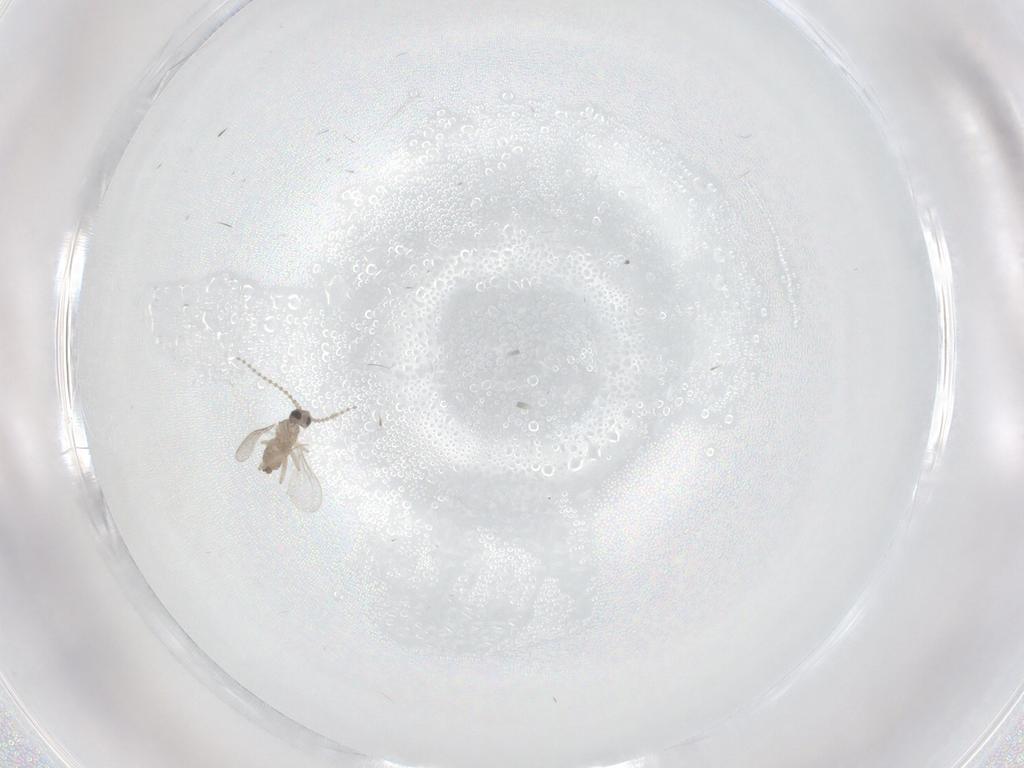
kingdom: Animalia
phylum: Arthropoda
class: Insecta
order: Diptera
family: Cecidomyiidae
